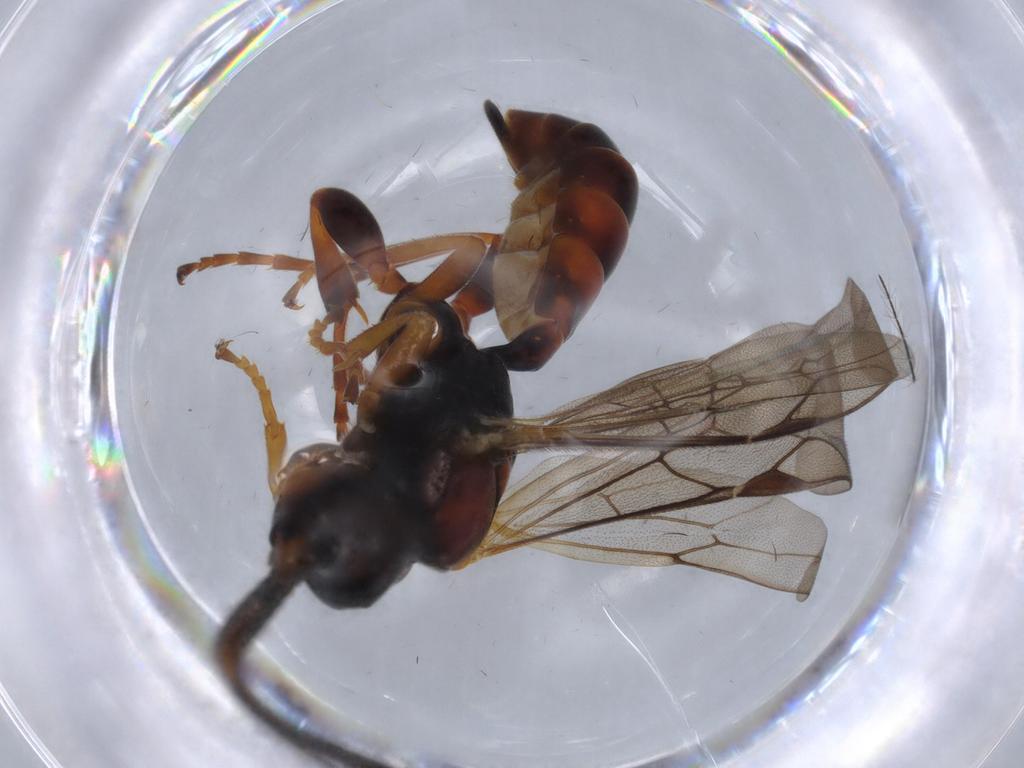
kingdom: Animalia
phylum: Arthropoda
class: Insecta
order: Hymenoptera
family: Ichneumonidae
